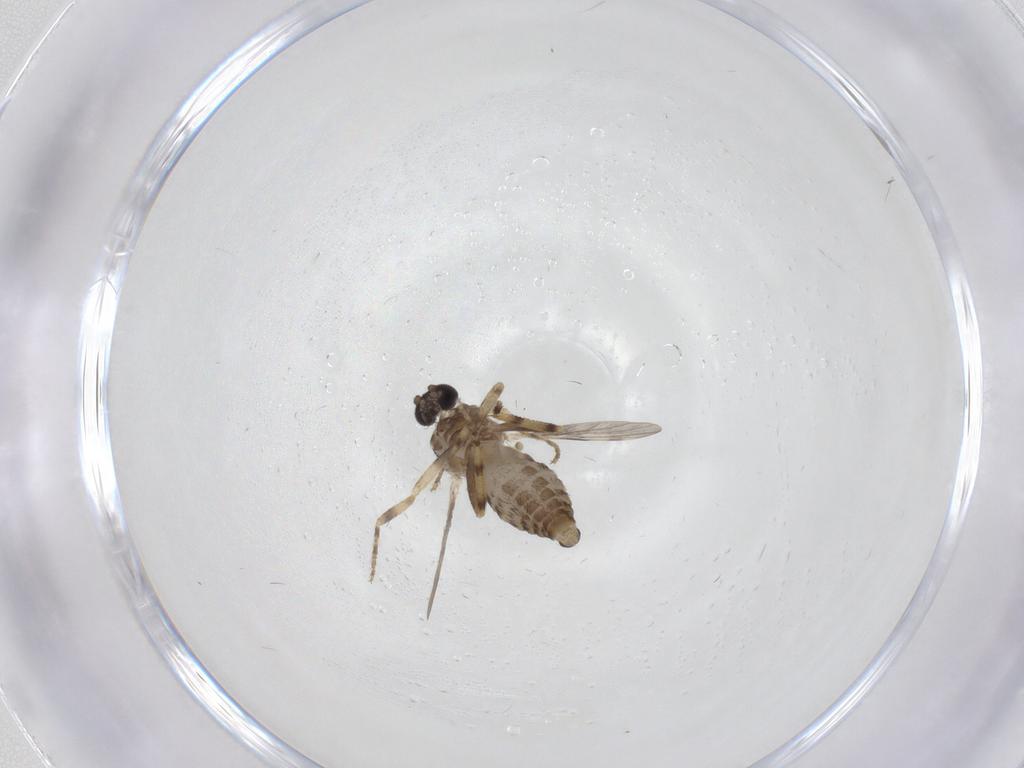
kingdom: Animalia
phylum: Arthropoda
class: Insecta
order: Diptera
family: Ceratopogonidae
